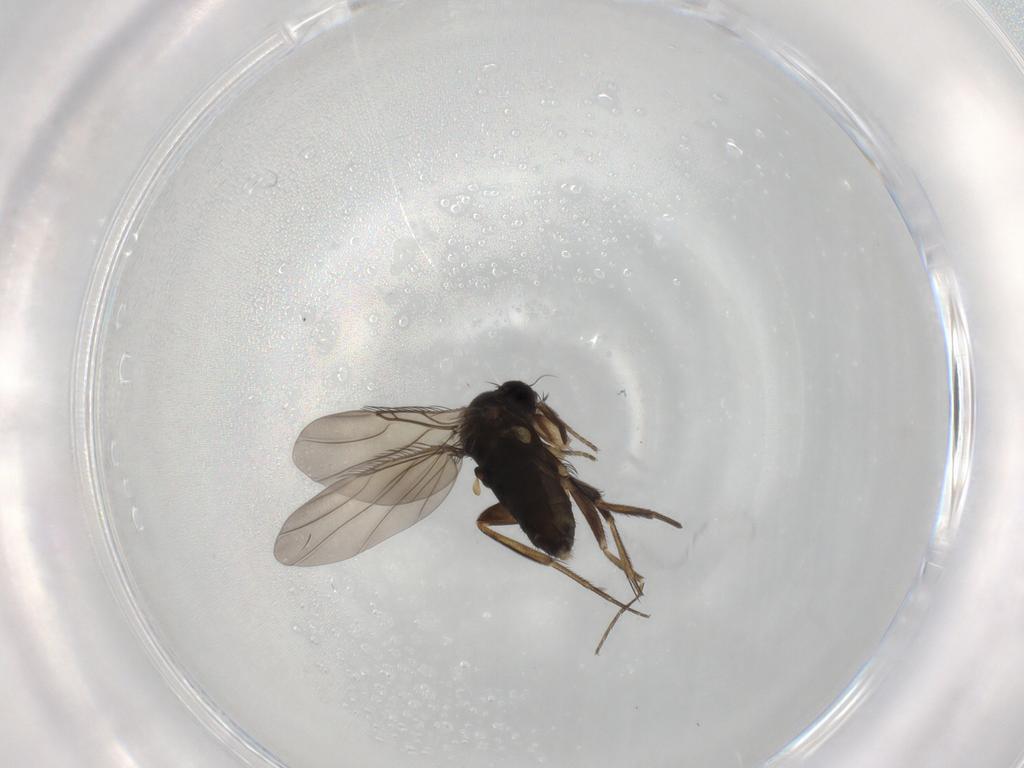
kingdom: Animalia
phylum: Arthropoda
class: Insecta
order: Diptera
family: Phoridae
